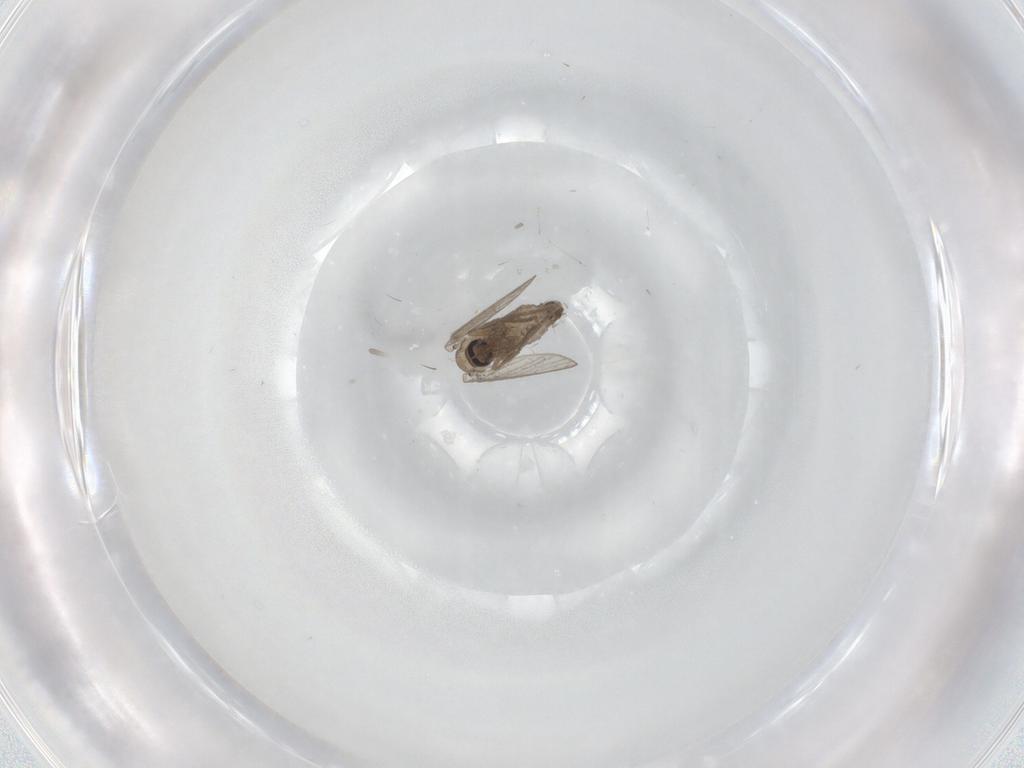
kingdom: Animalia
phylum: Arthropoda
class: Insecta
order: Diptera
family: Psychodidae
